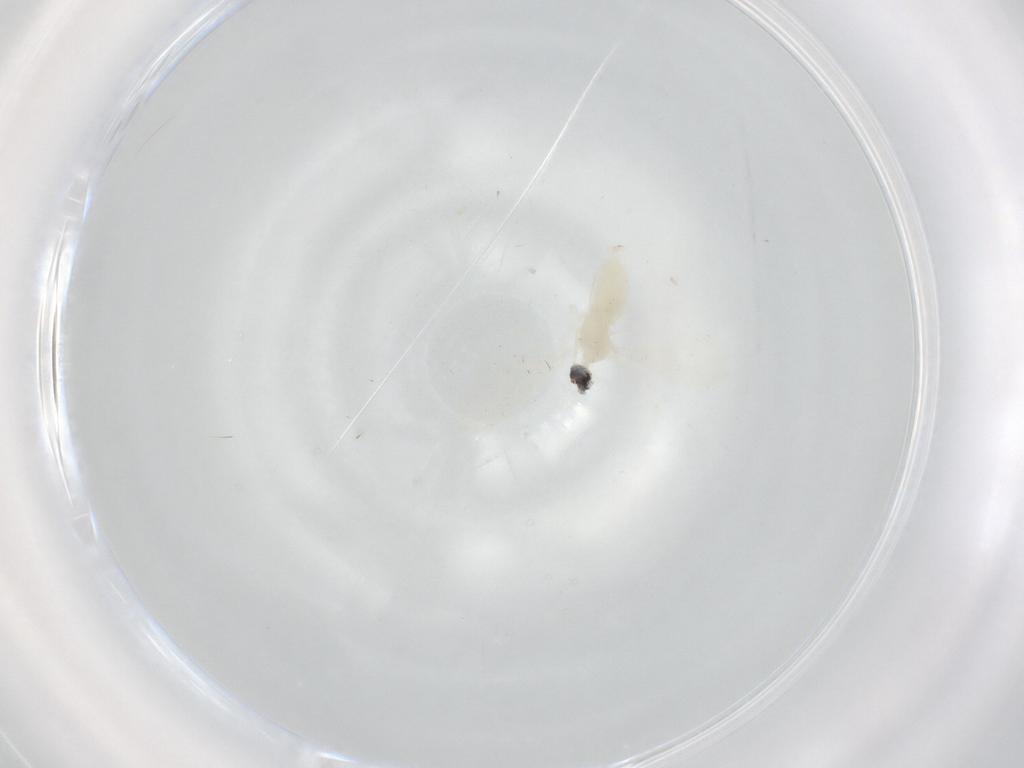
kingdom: Animalia
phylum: Arthropoda
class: Insecta
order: Diptera
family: Cecidomyiidae
